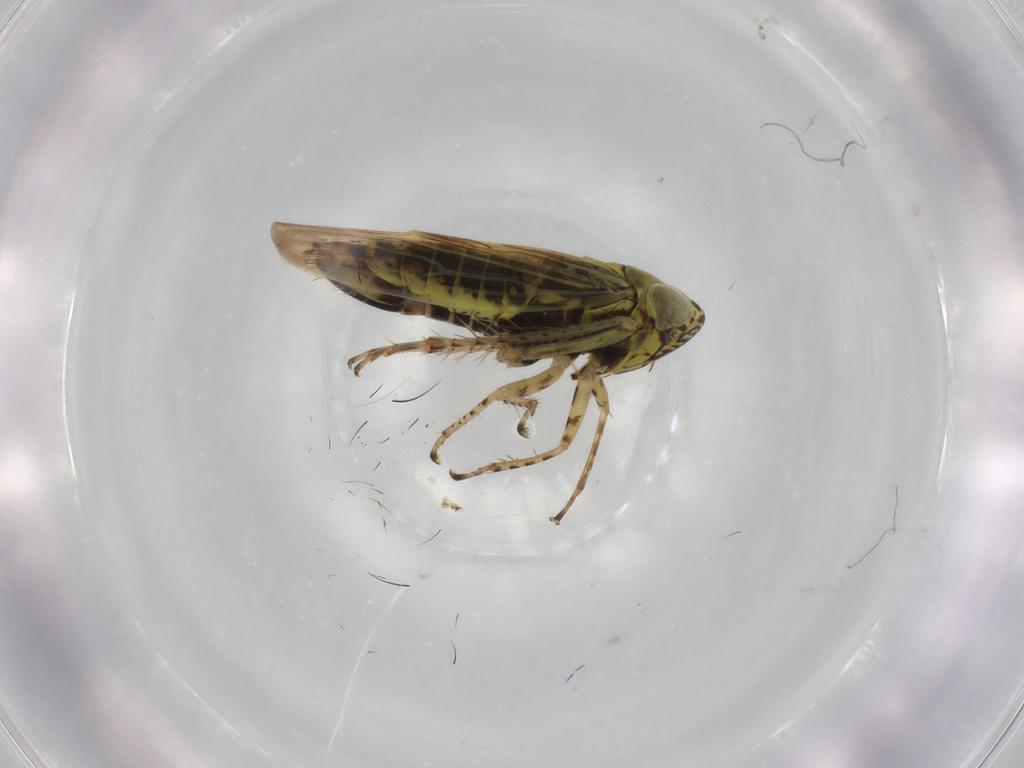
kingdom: Animalia
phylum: Arthropoda
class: Insecta
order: Hemiptera
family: Cicadellidae
